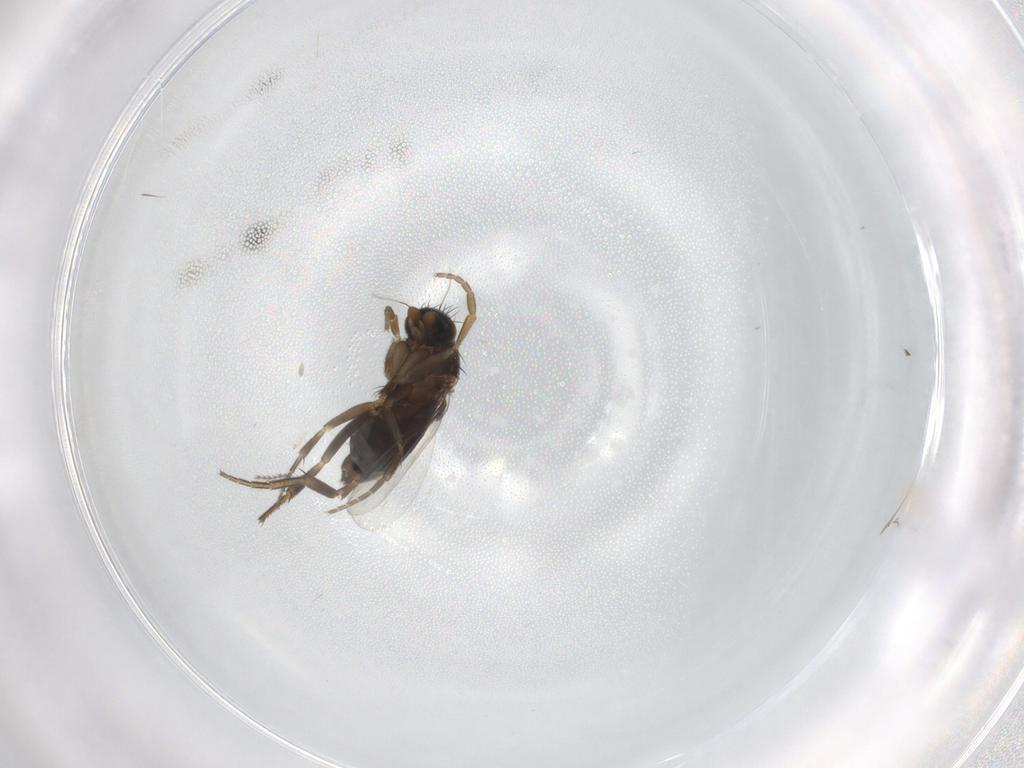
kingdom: Animalia
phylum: Arthropoda
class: Insecta
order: Diptera
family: Phoridae
